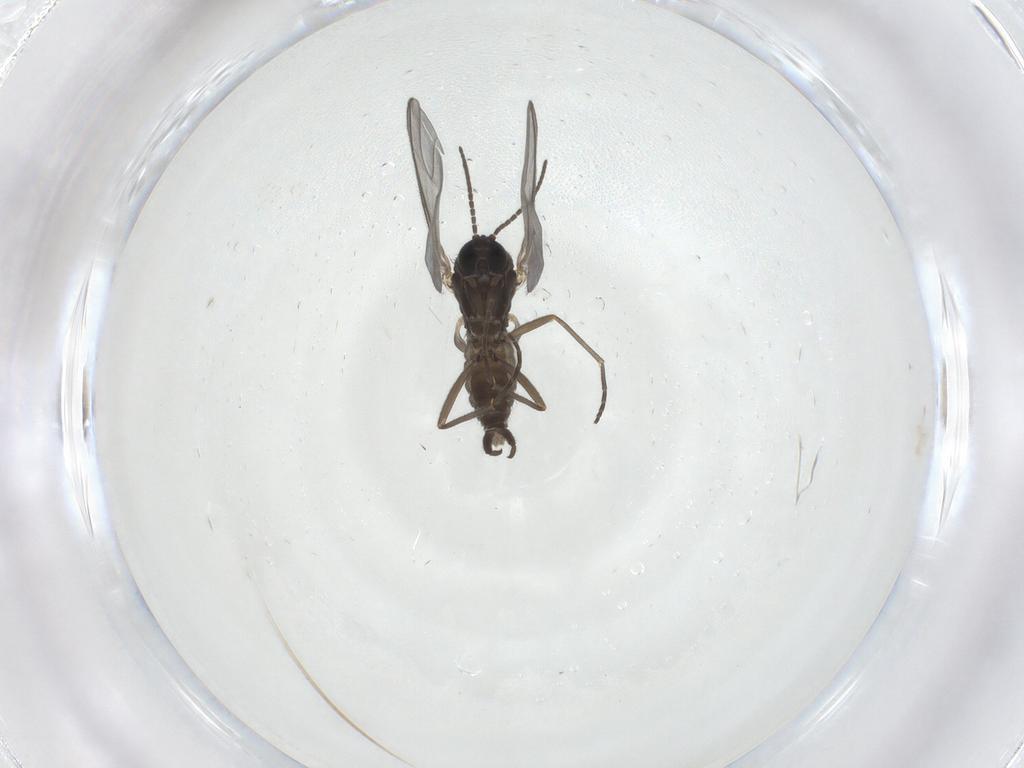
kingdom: Animalia
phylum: Arthropoda
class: Insecta
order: Diptera
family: Sciaridae
